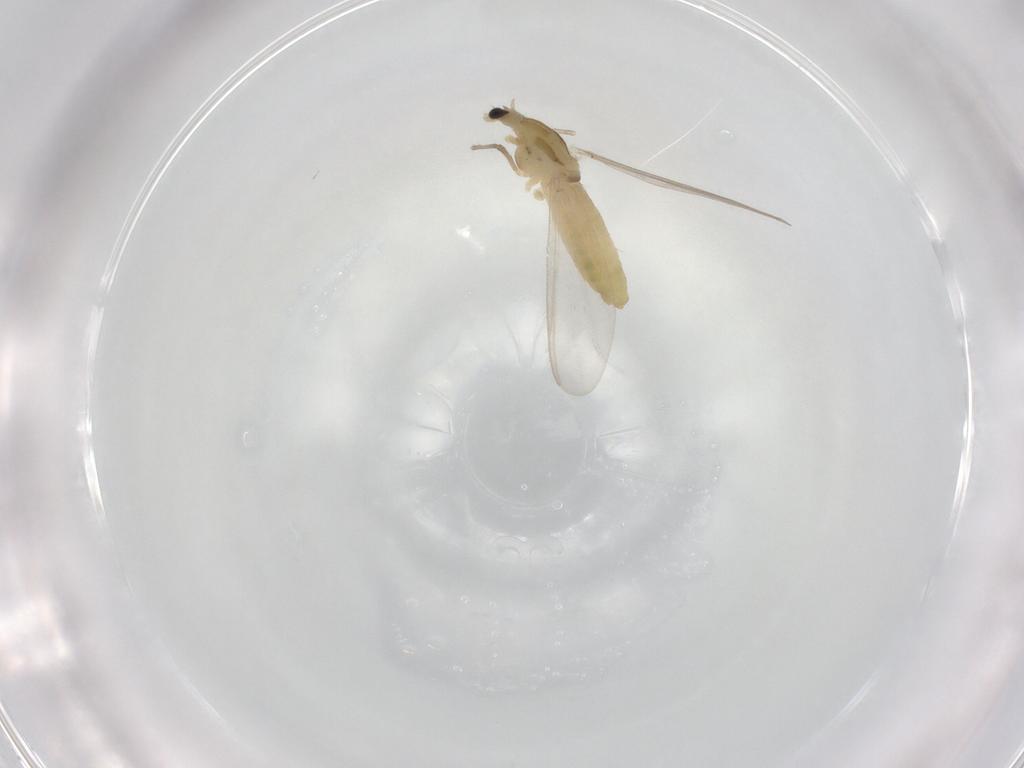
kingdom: Animalia
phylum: Arthropoda
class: Insecta
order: Diptera
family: Chironomidae
